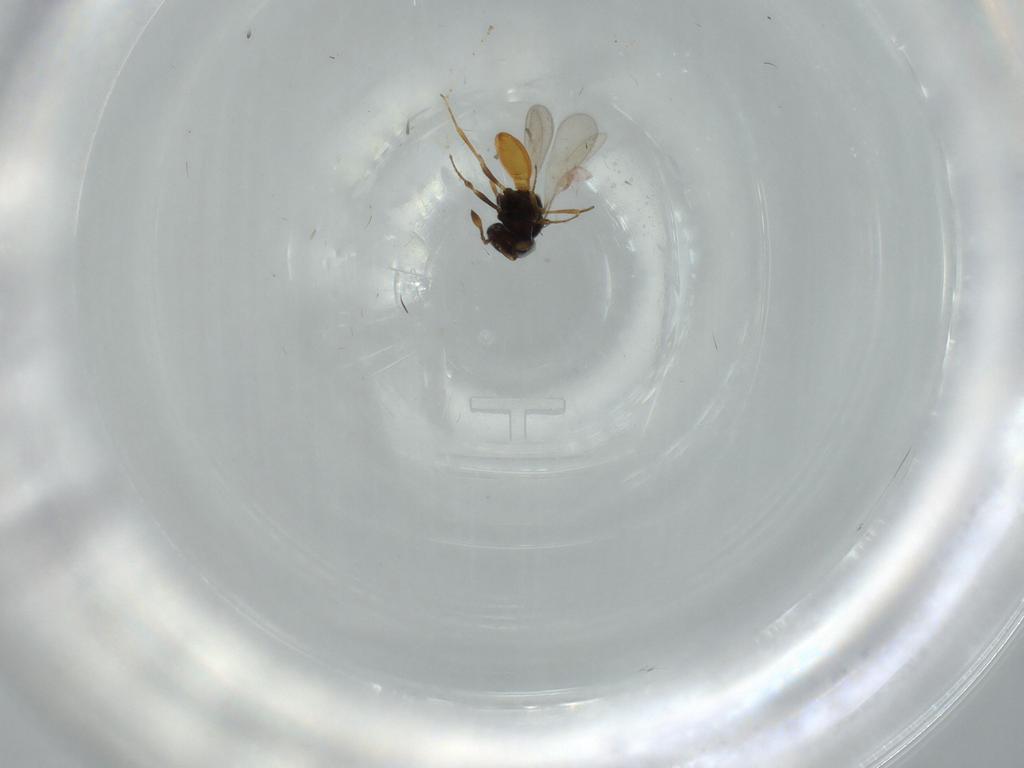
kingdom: Animalia
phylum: Arthropoda
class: Insecta
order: Hymenoptera
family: Scelionidae
